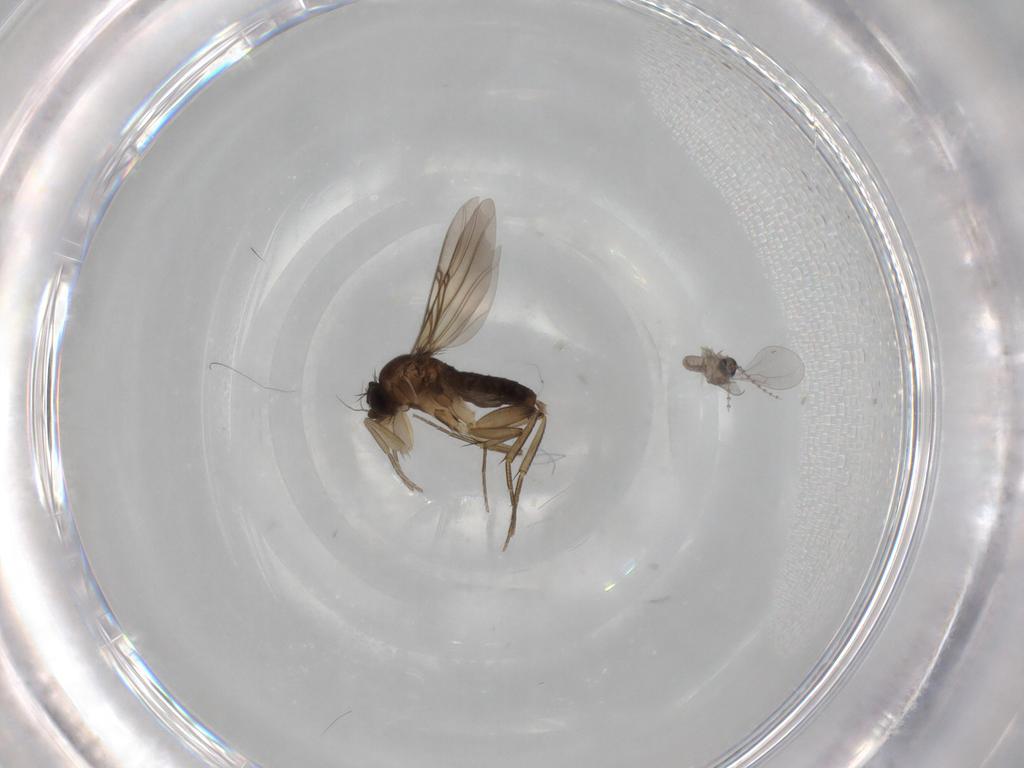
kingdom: Animalia
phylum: Arthropoda
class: Insecta
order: Diptera
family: Phoridae
